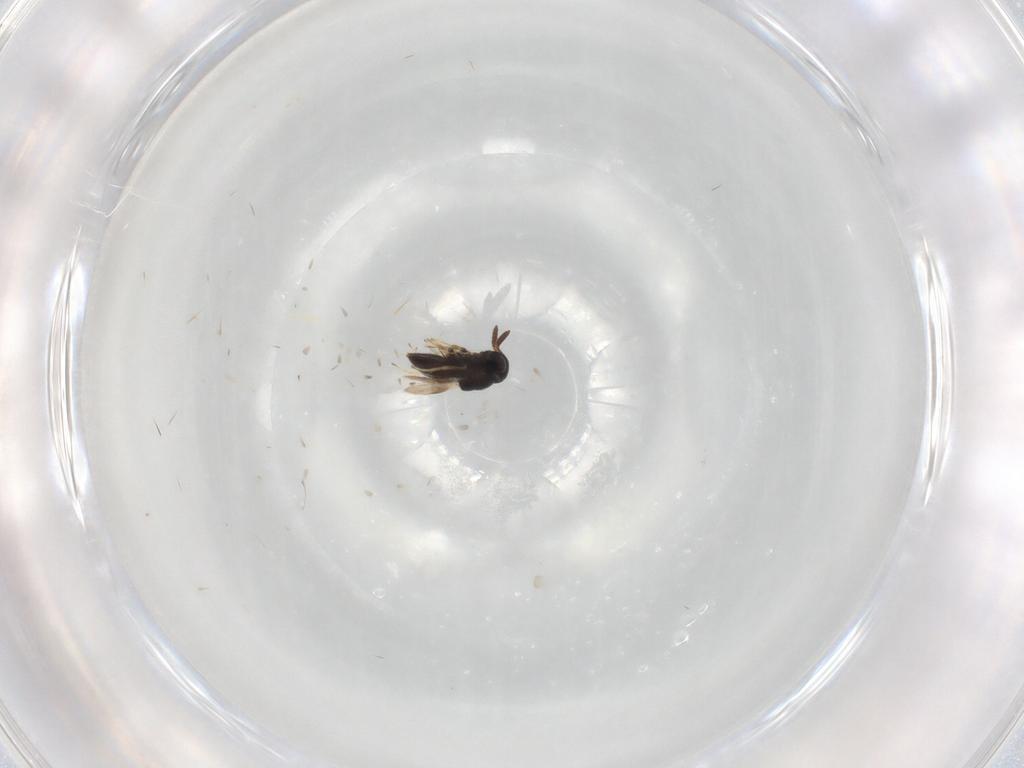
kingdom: Animalia
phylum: Arthropoda
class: Insecta
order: Hymenoptera
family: Scelionidae
